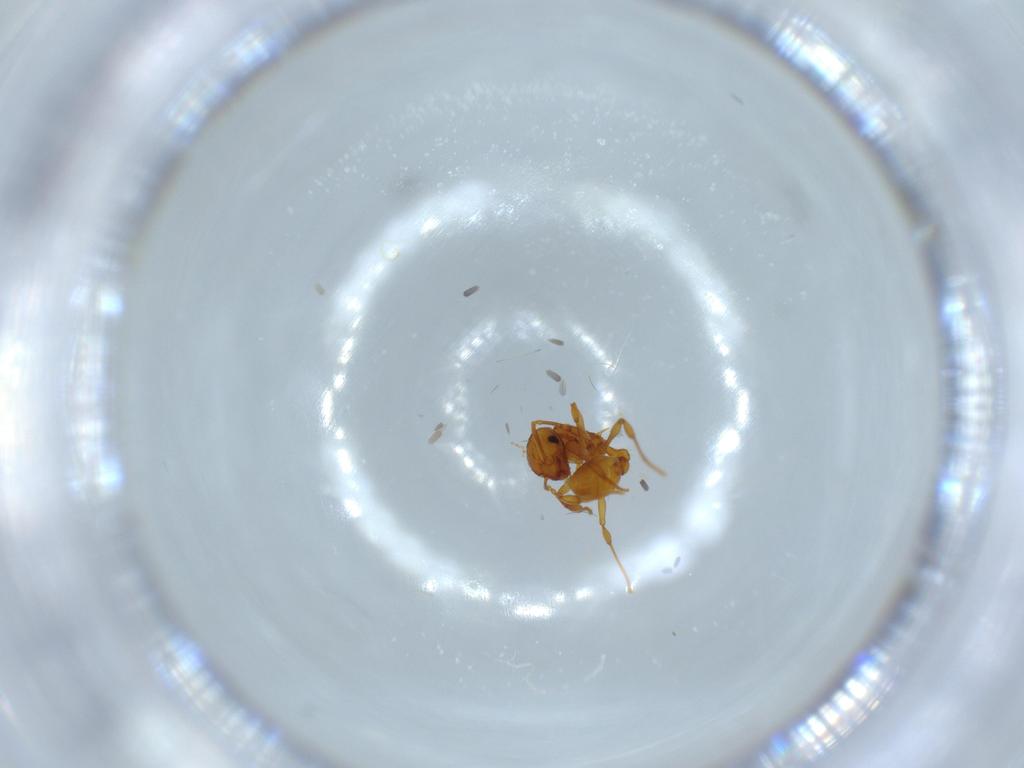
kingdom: Animalia
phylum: Arthropoda
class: Insecta
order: Hymenoptera
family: Formicidae
